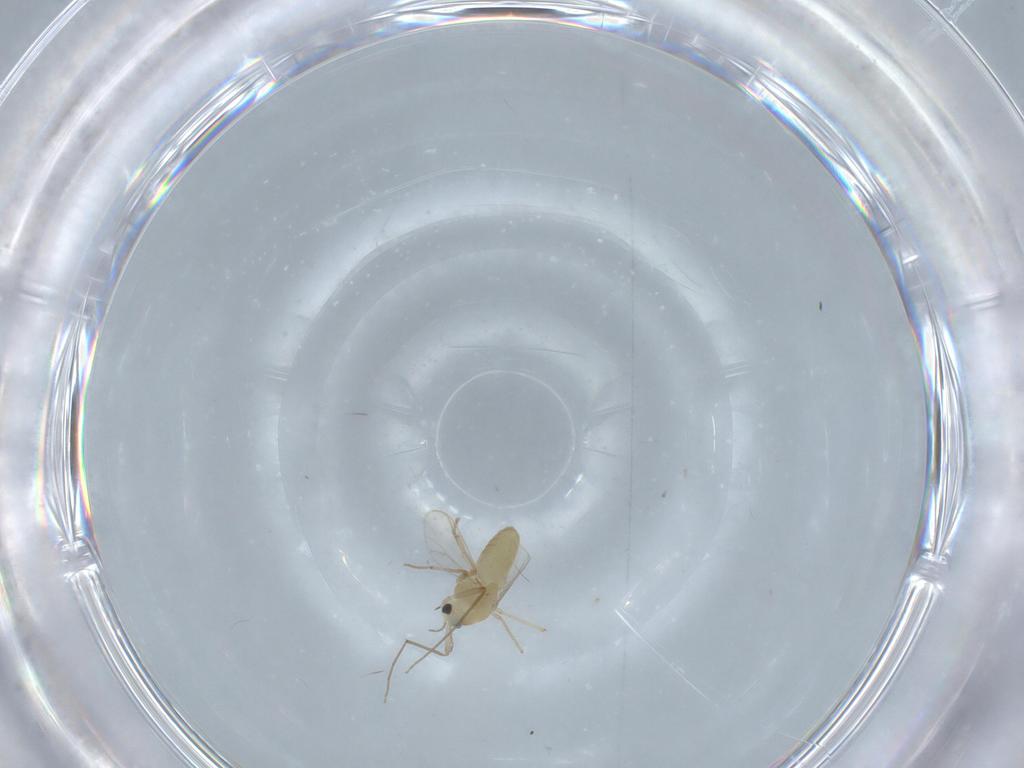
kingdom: Animalia
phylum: Arthropoda
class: Insecta
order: Diptera
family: Chironomidae
